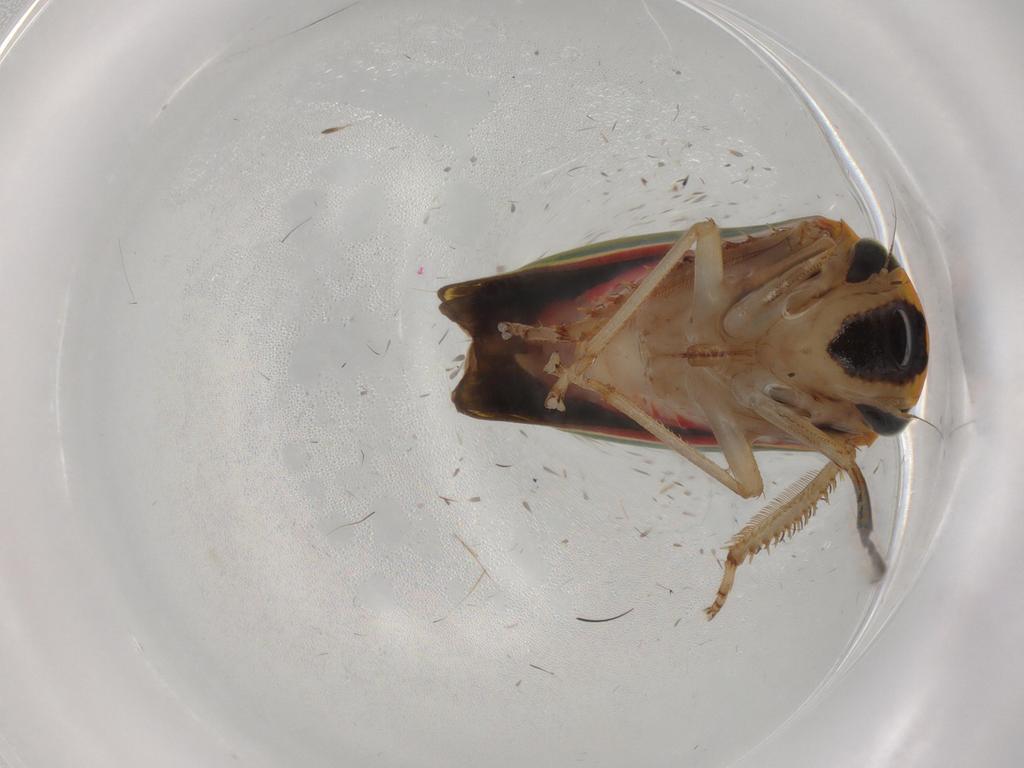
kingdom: Animalia
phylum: Arthropoda
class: Insecta
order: Hemiptera
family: Cicadellidae
